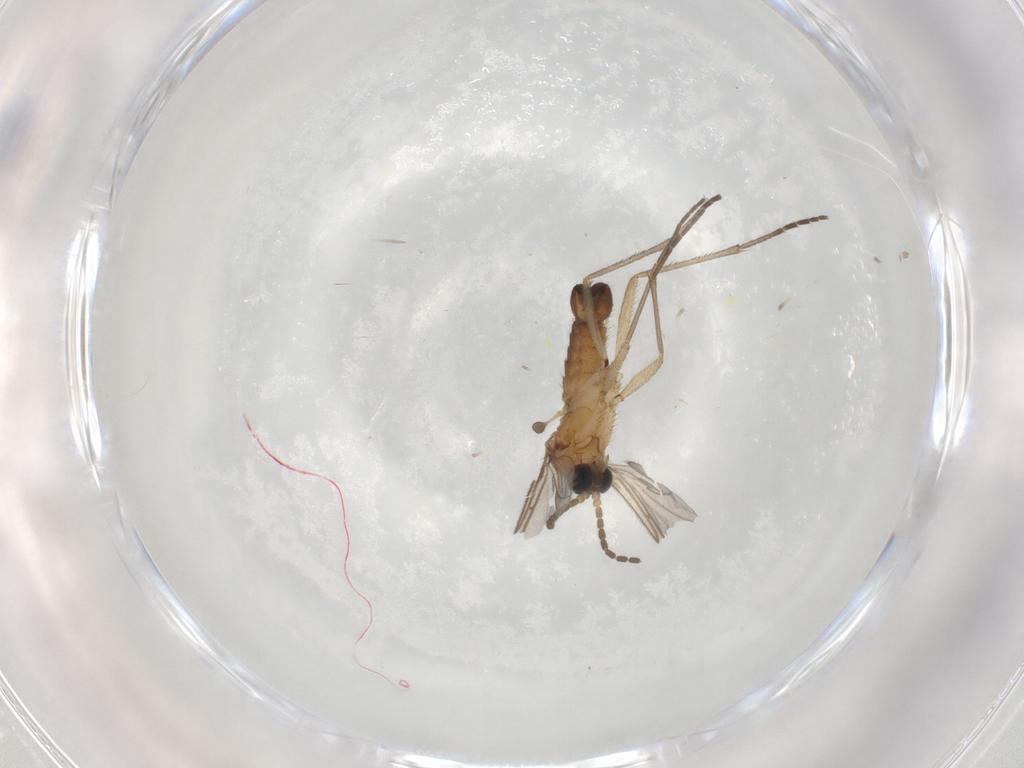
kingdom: Animalia
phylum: Arthropoda
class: Insecta
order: Diptera
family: Sciaridae
